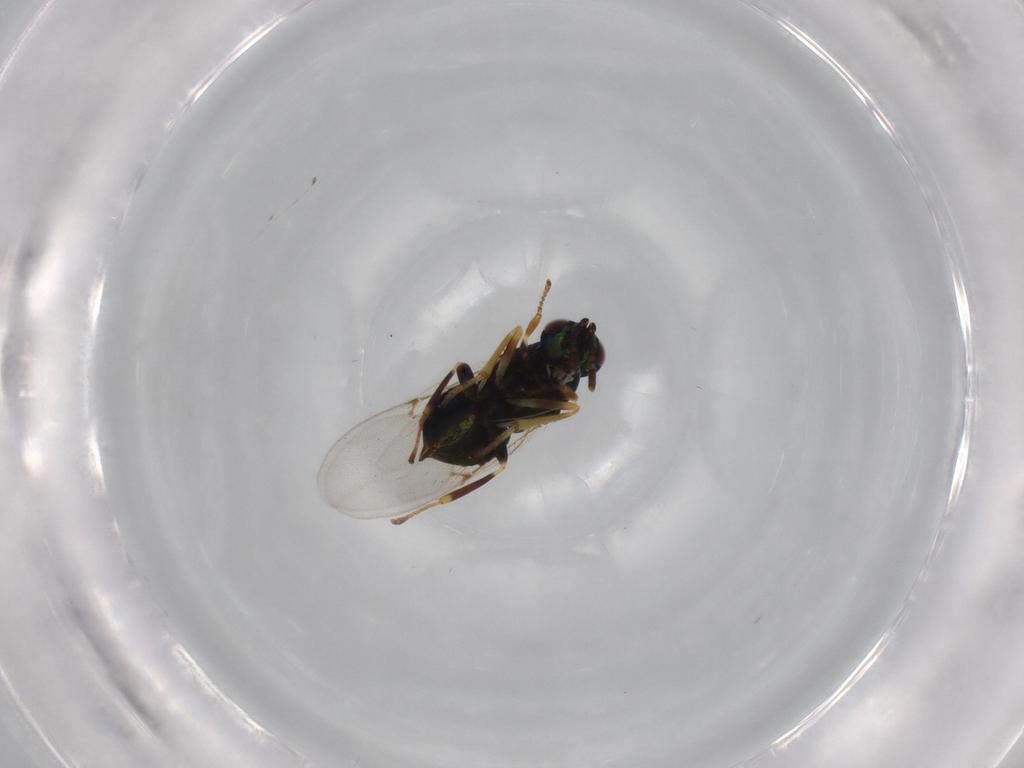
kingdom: Animalia
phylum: Arthropoda
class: Insecta
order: Hymenoptera
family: Encyrtidae
